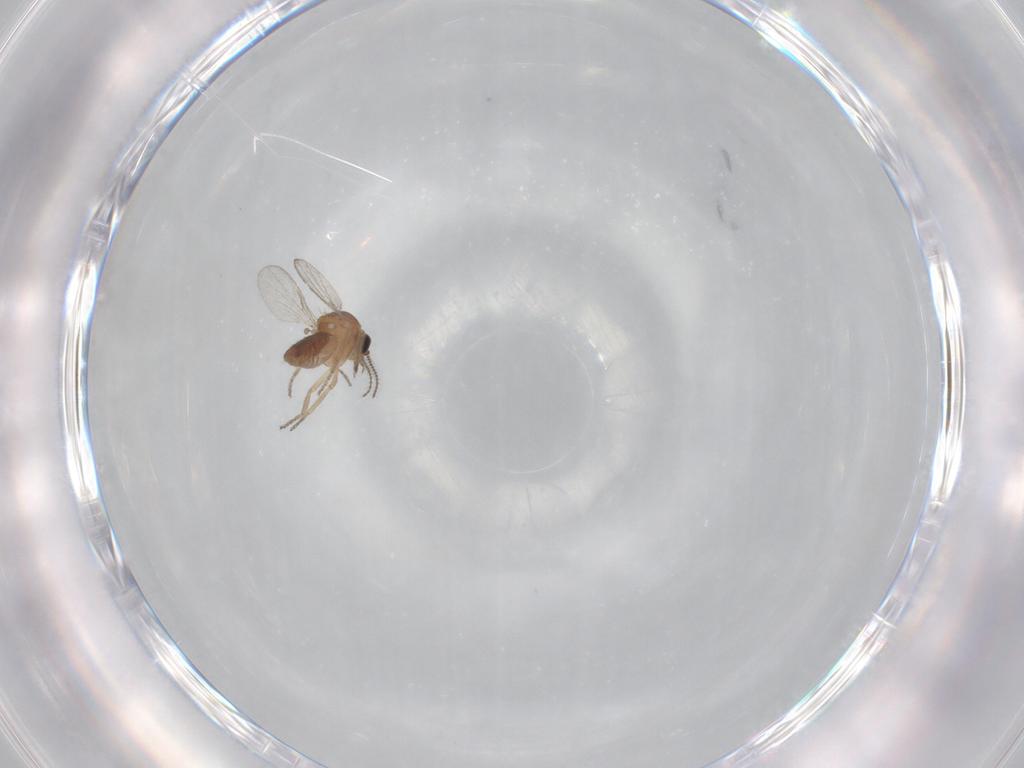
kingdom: Animalia
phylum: Arthropoda
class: Insecta
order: Diptera
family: Ceratopogonidae
